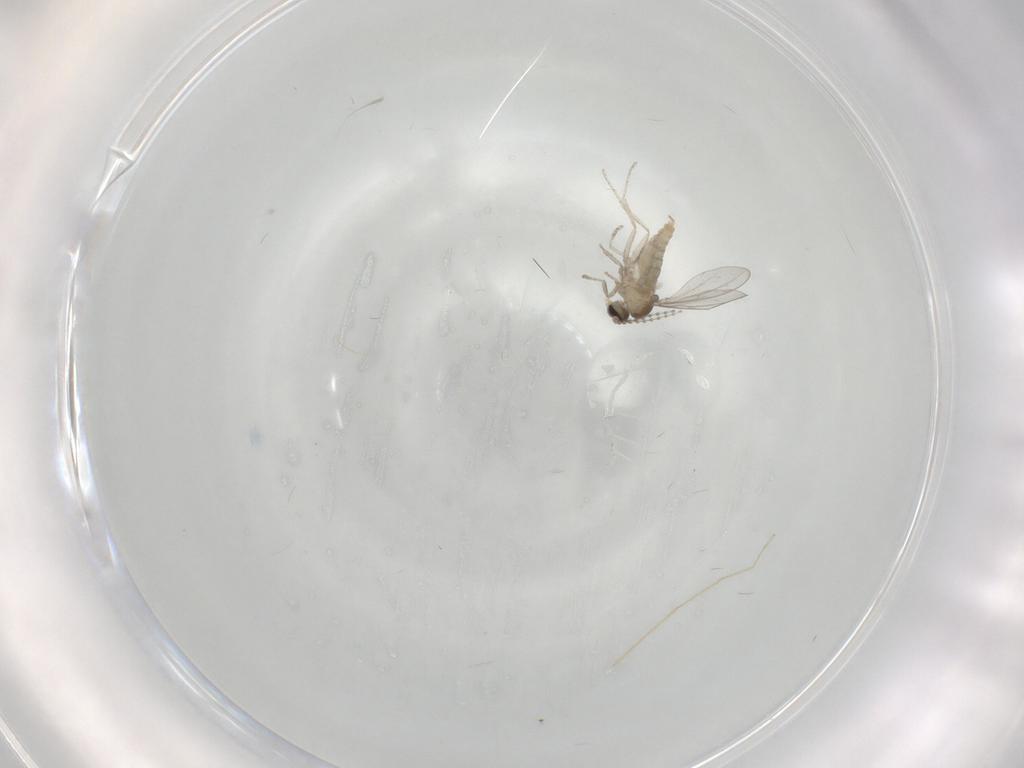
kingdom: Animalia
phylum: Arthropoda
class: Insecta
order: Diptera
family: Cecidomyiidae
